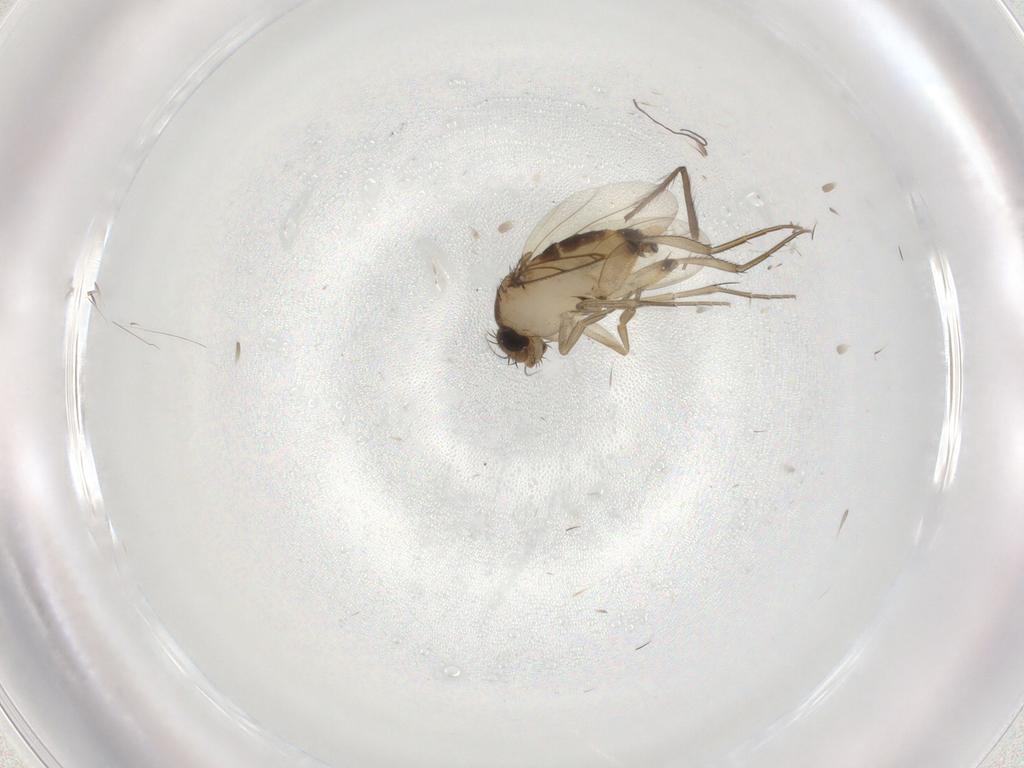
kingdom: Animalia
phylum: Arthropoda
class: Insecta
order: Diptera
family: Phoridae
